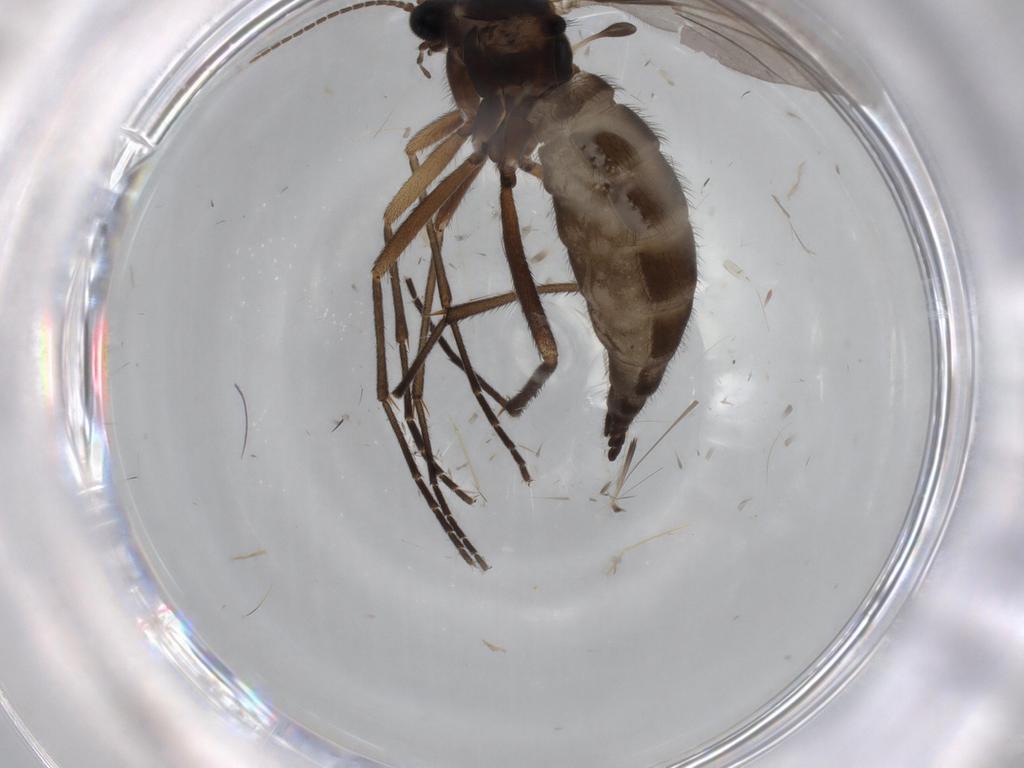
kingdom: Animalia
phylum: Arthropoda
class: Insecta
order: Diptera
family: Sciaridae
